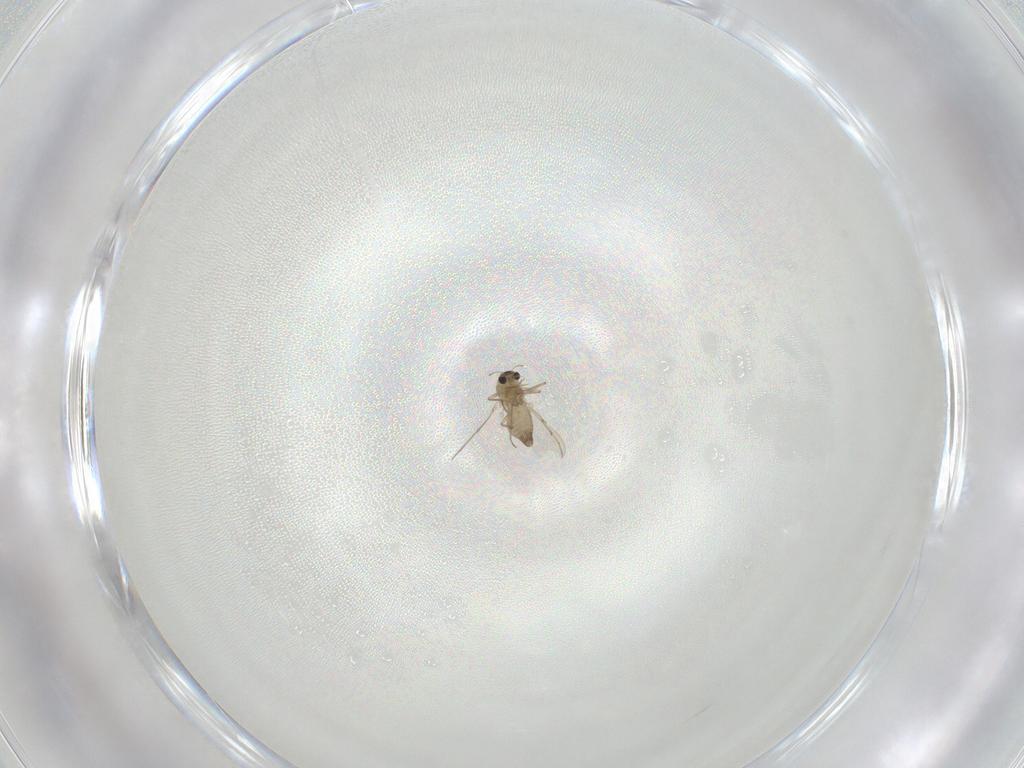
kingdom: Animalia
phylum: Arthropoda
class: Insecta
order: Diptera
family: Chironomidae
